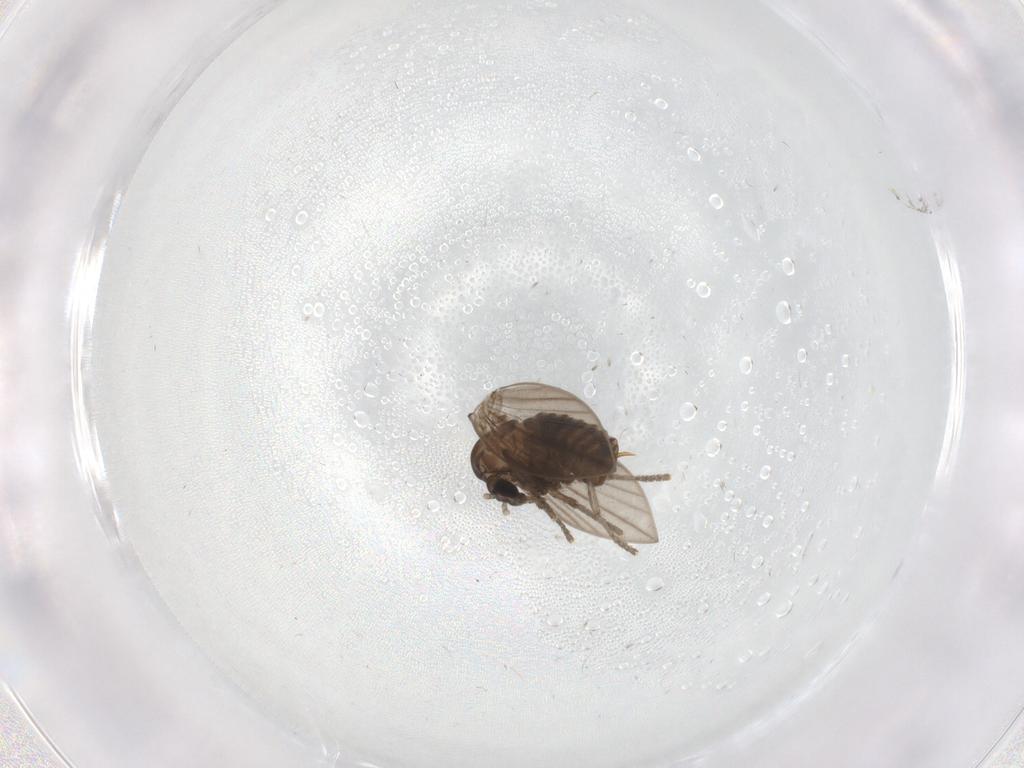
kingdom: Animalia
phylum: Arthropoda
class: Insecta
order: Diptera
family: Psychodidae
